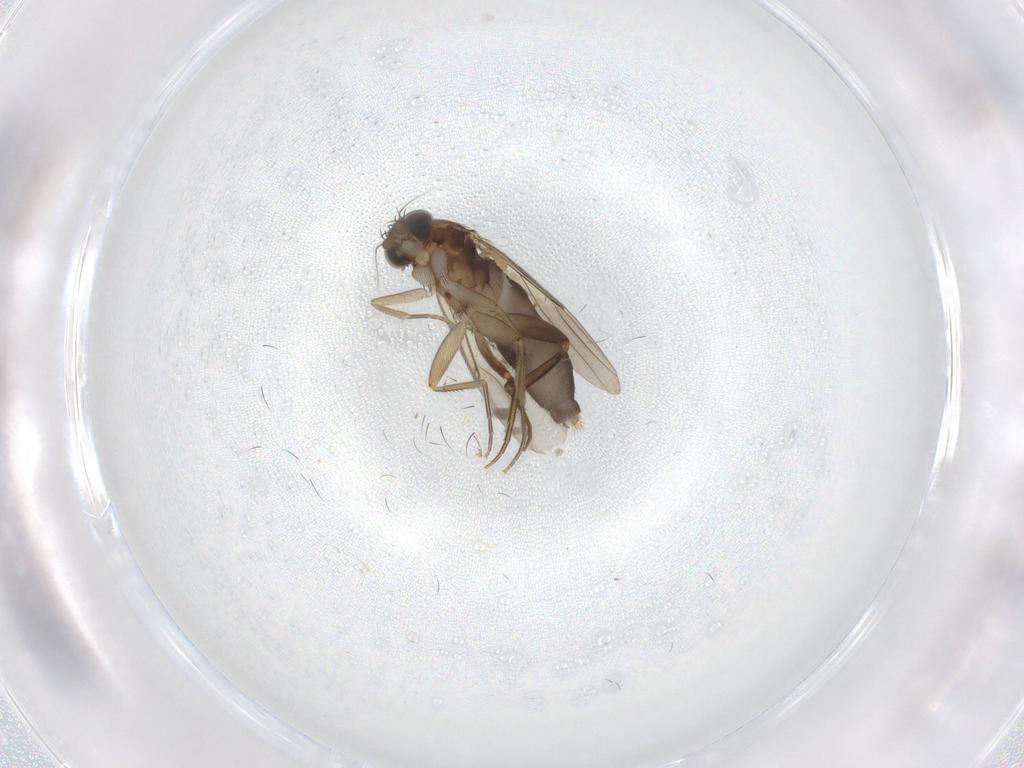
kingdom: Animalia
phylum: Arthropoda
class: Insecta
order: Diptera
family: Phoridae
